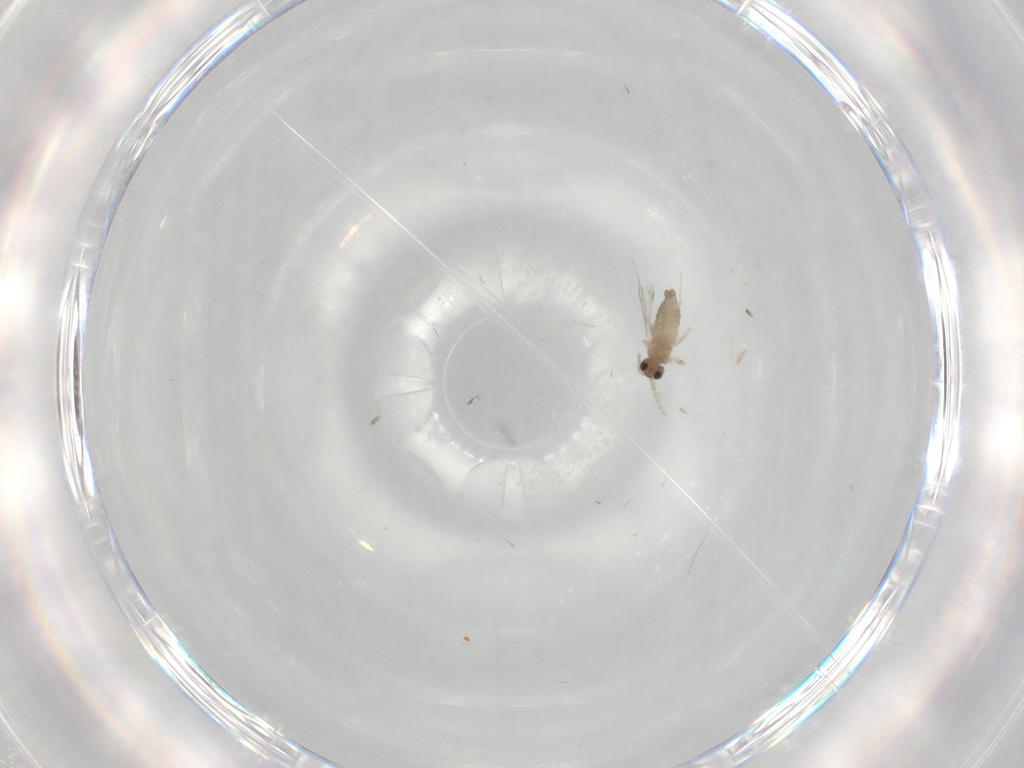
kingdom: Animalia
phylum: Arthropoda
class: Insecta
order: Diptera
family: Cecidomyiidae
